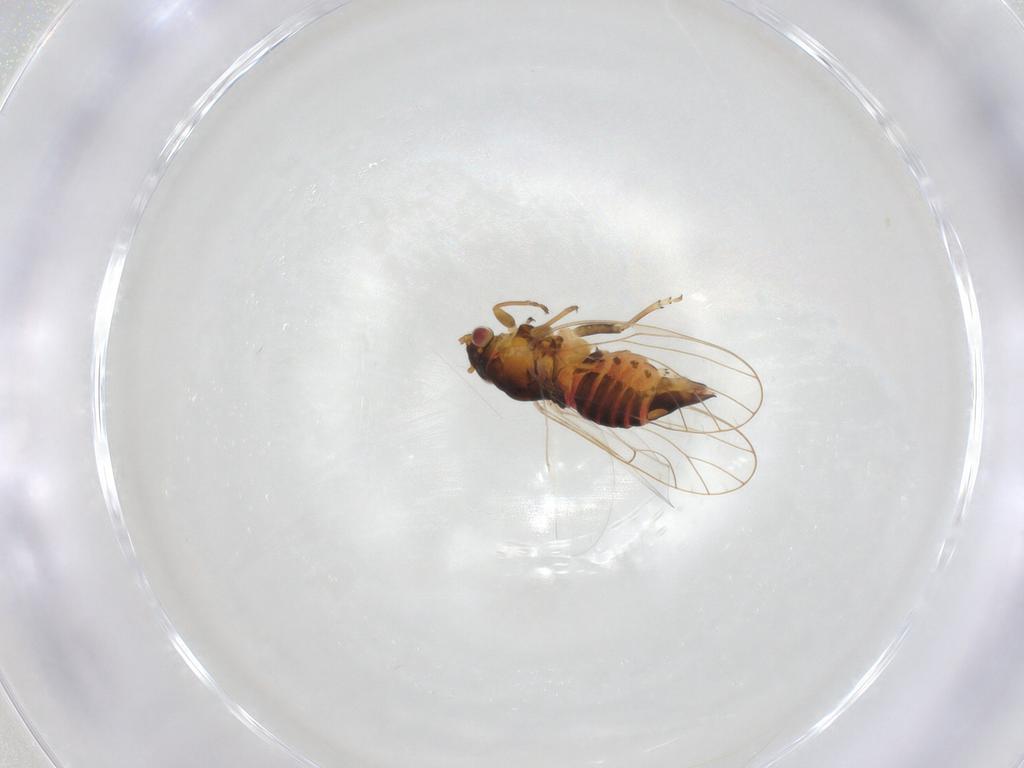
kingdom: Animalia
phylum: Arthropoda
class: Insecta
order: Hemiptera
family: Psyllidae
